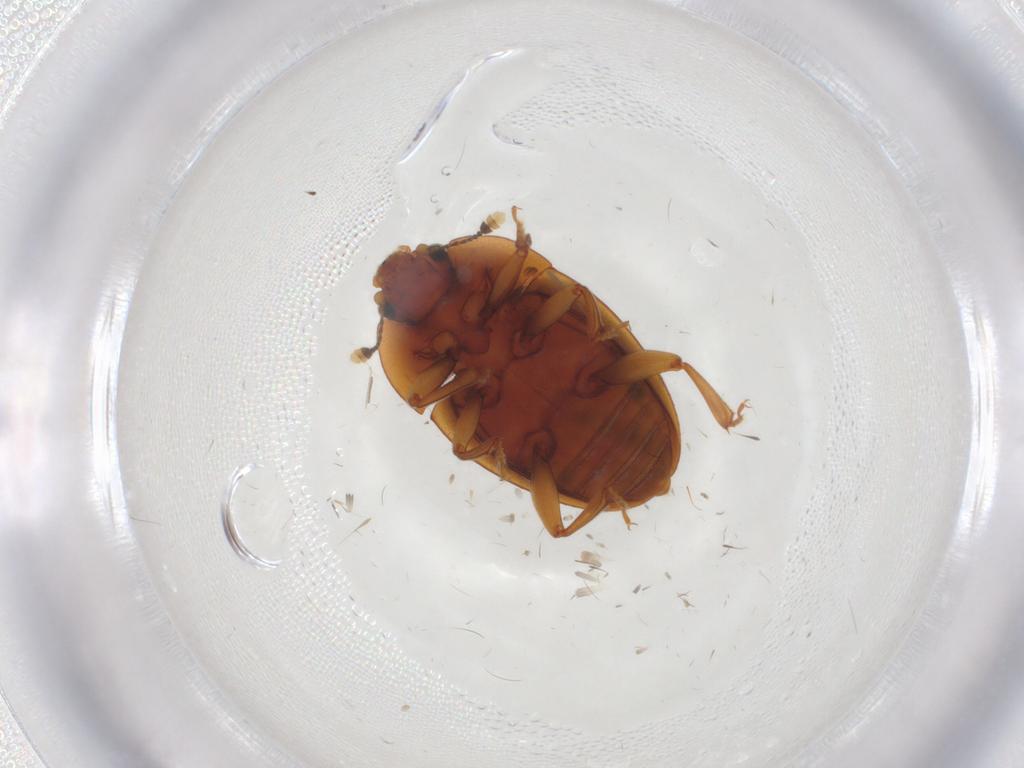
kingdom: Animalia
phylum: Arthropoda
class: Insecta
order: Coleoptera
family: Nitidulidae
